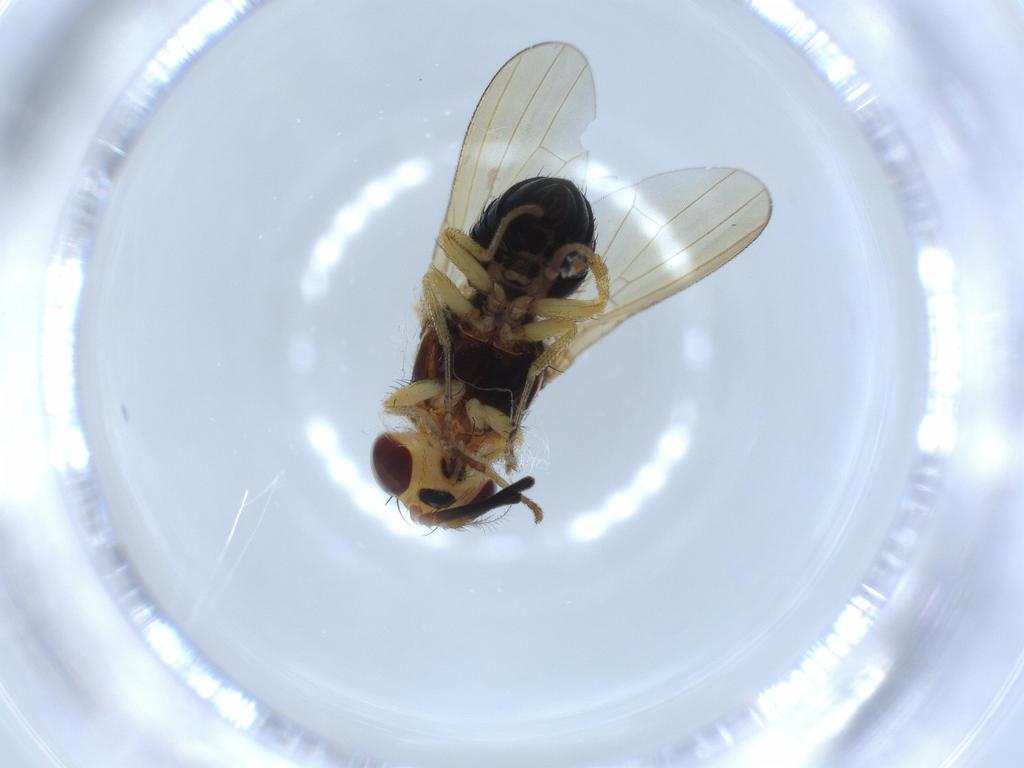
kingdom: Animalia
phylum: Arthropoda
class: Insecta
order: Diptera
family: Lauxaniidae
